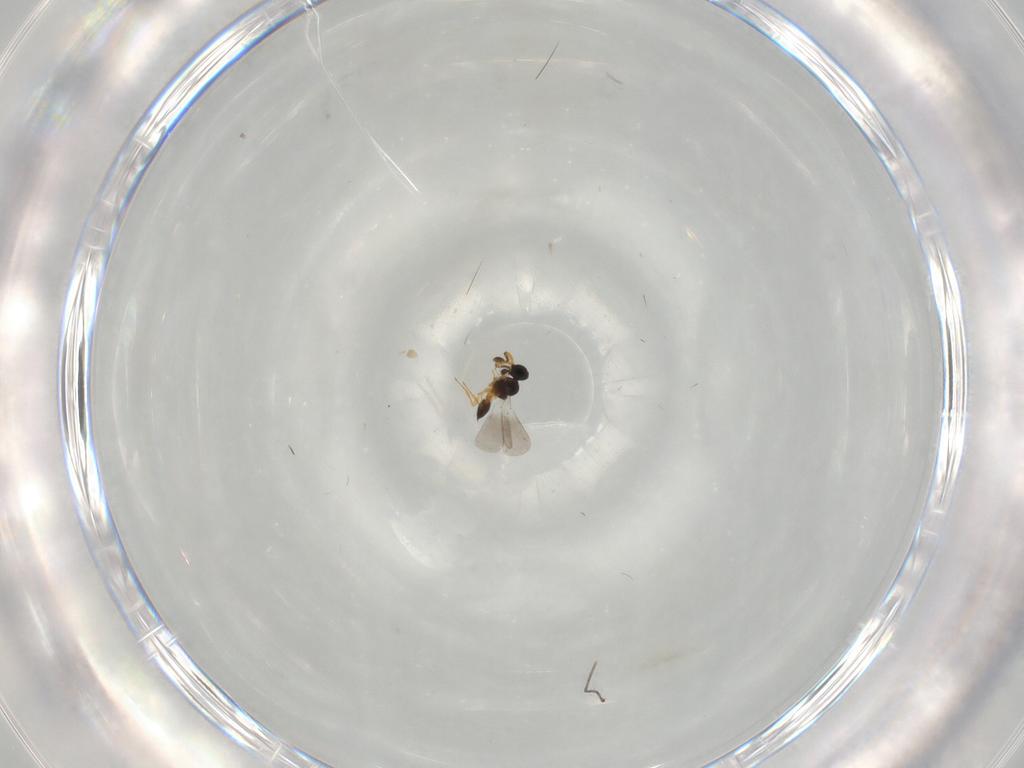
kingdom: Animalia
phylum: Arthropoda
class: Insecta
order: Hymenoptera
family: Platygastridae
